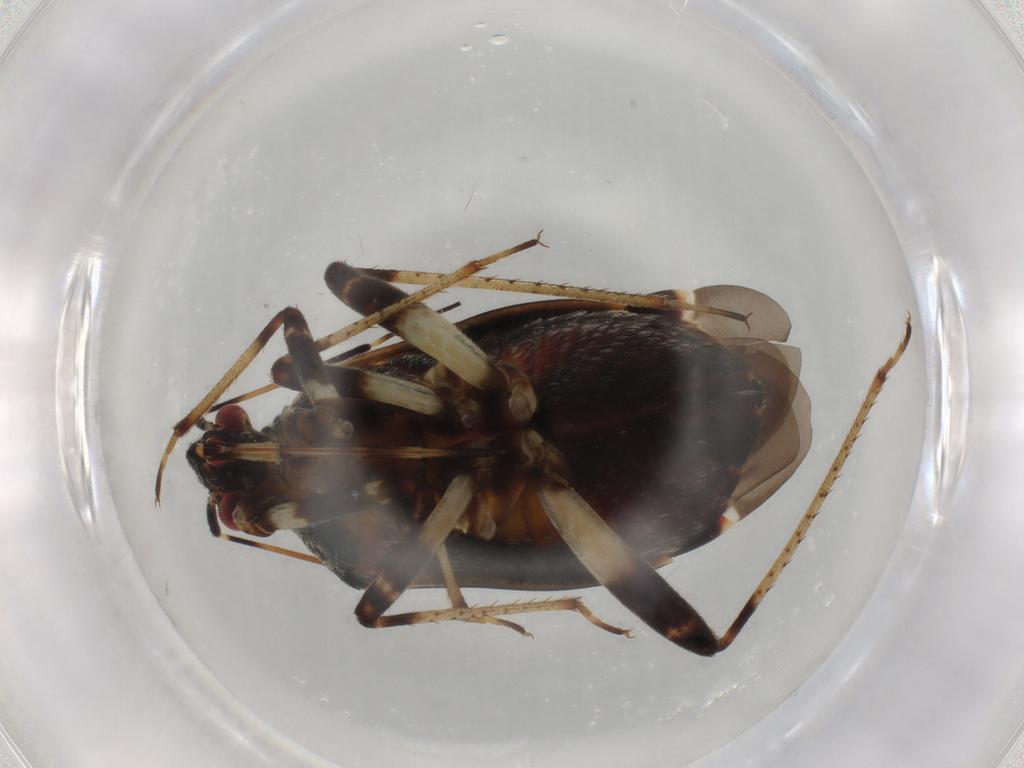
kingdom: Animalia
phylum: Arthropoda
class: Insecta
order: Hemiptera
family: Miridae
